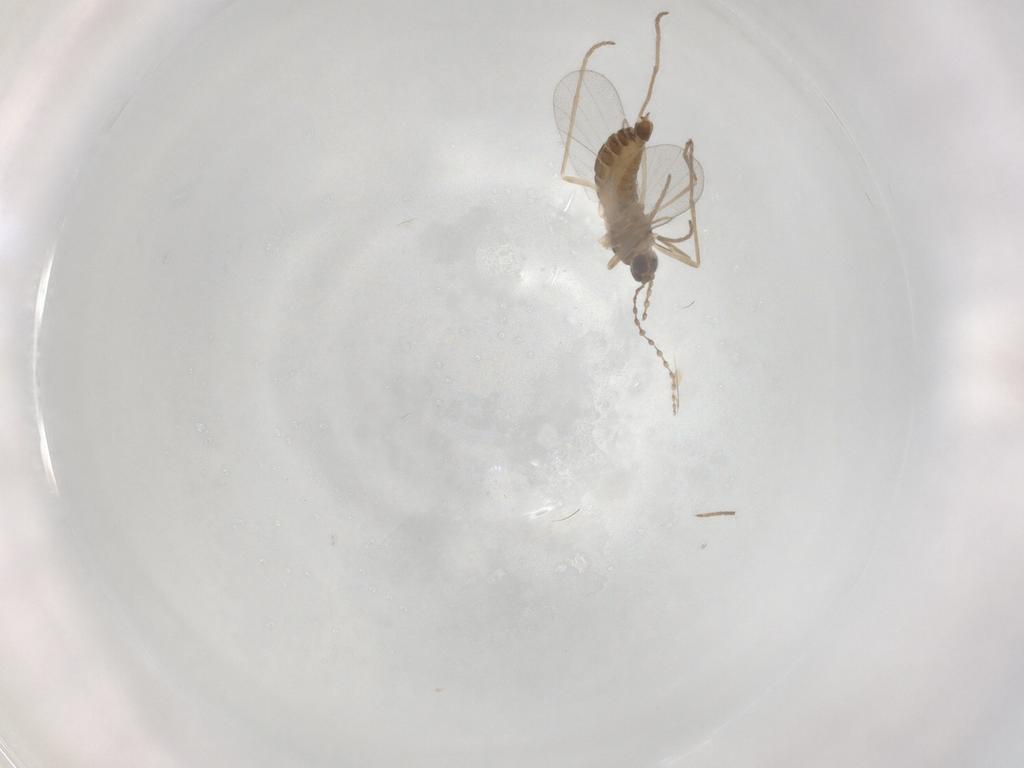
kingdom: Animalia
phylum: Arthropoda
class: Insecta
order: Diptera
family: Cecidomyiidae
